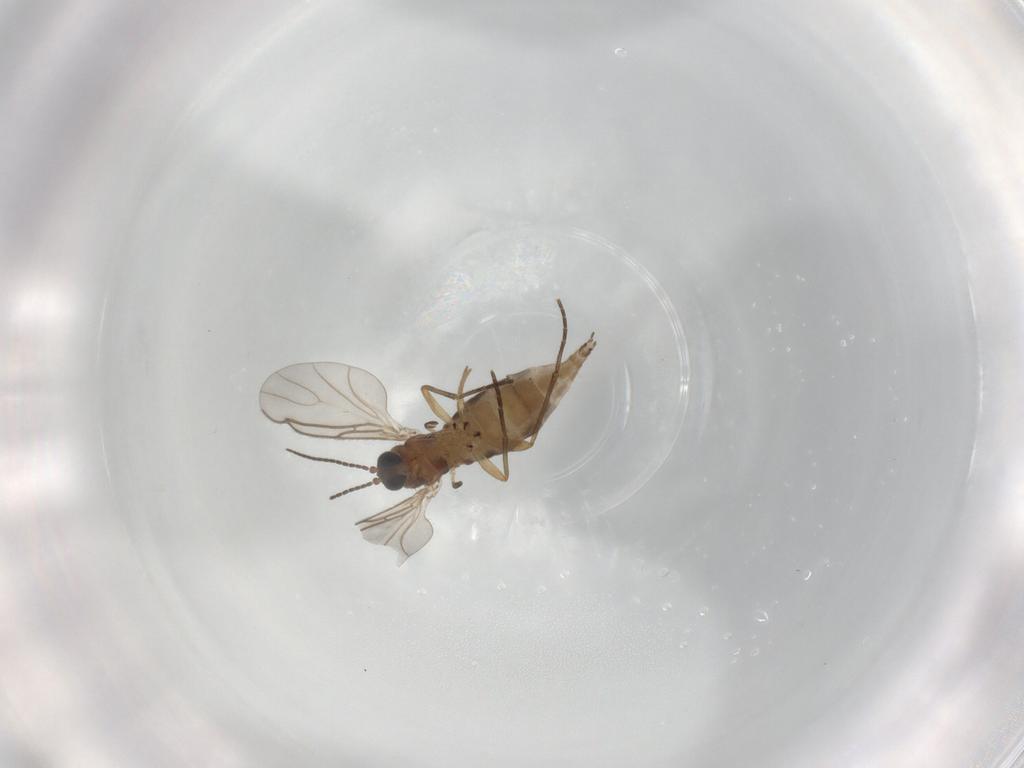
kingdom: Animalia
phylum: Arthropoda
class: Insecta
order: Diptera
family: Sciaridae
